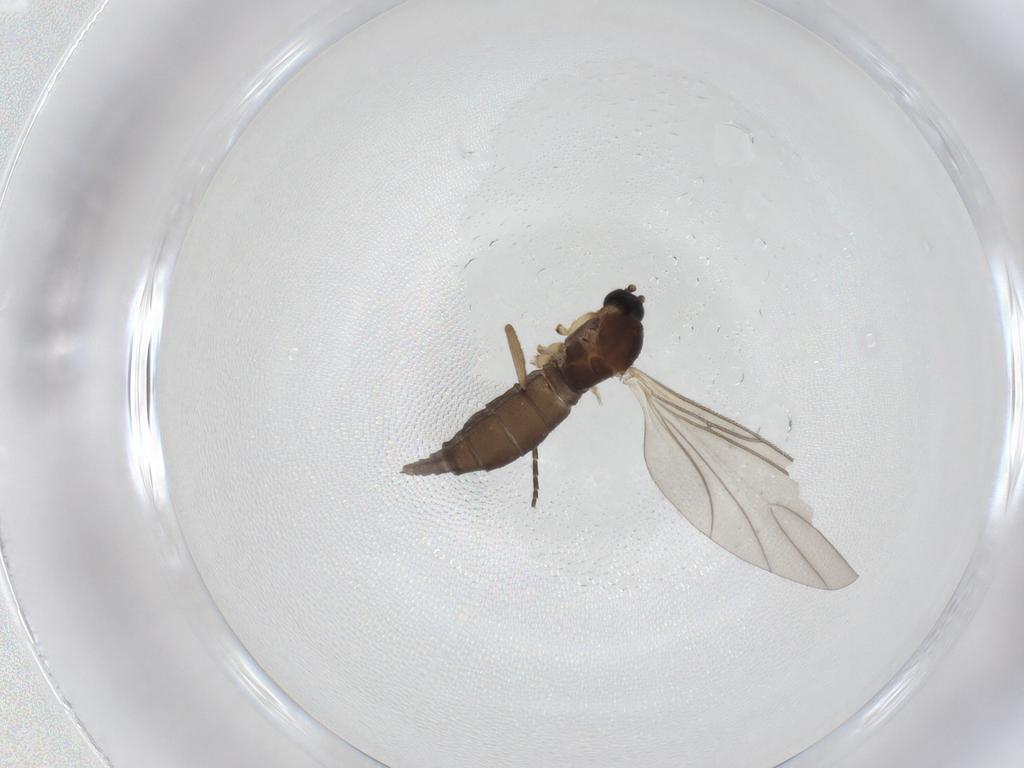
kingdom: Animalia
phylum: Arthropoda
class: Insecta
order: Diptera
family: Sciaridae
